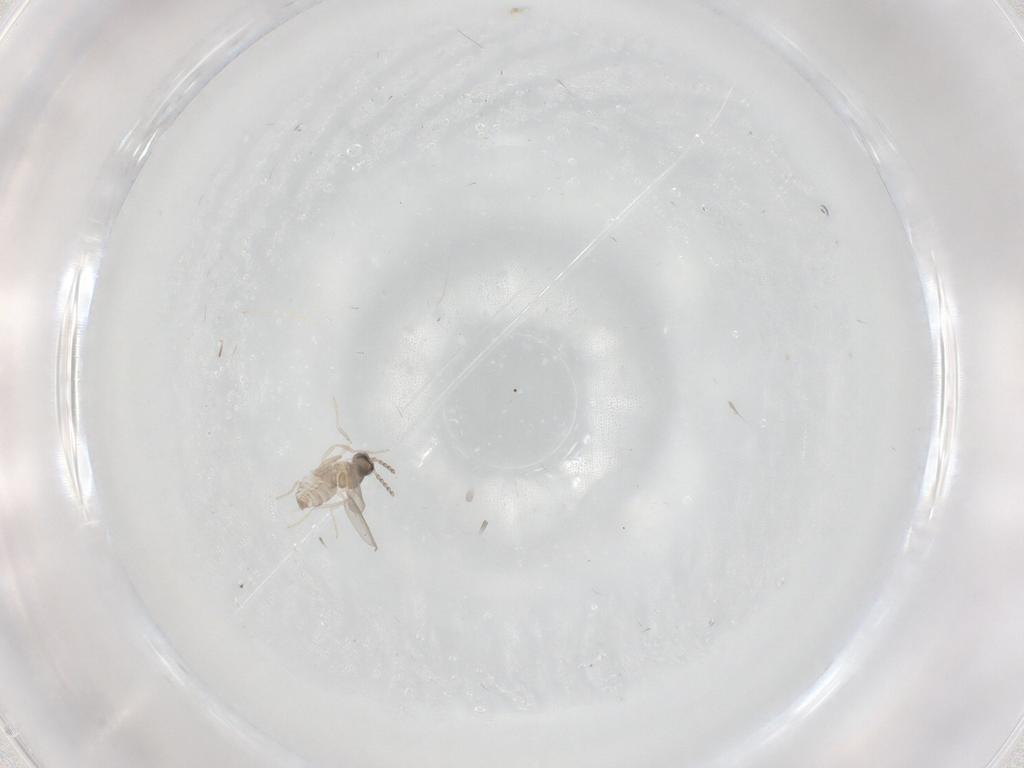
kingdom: Animalia
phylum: Arthropoda
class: Insecta
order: Diptera
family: Cecidomyiidae
